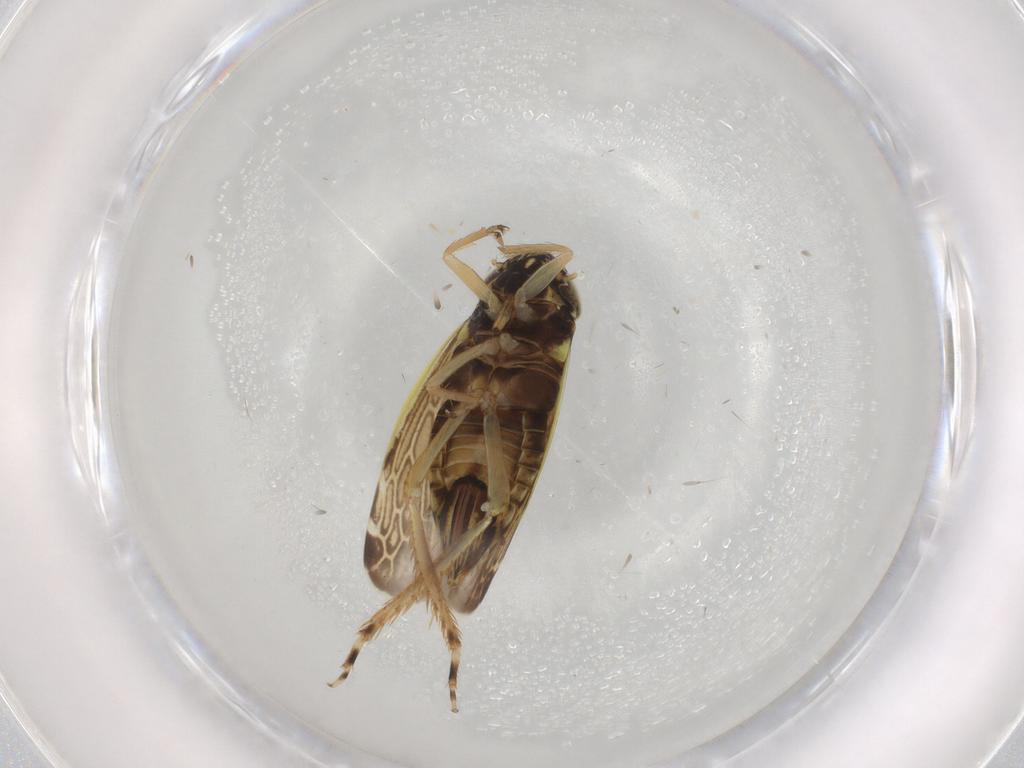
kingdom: Animalia
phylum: Arthropoda
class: Insecta
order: Hemiptera
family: Cicadellidae
